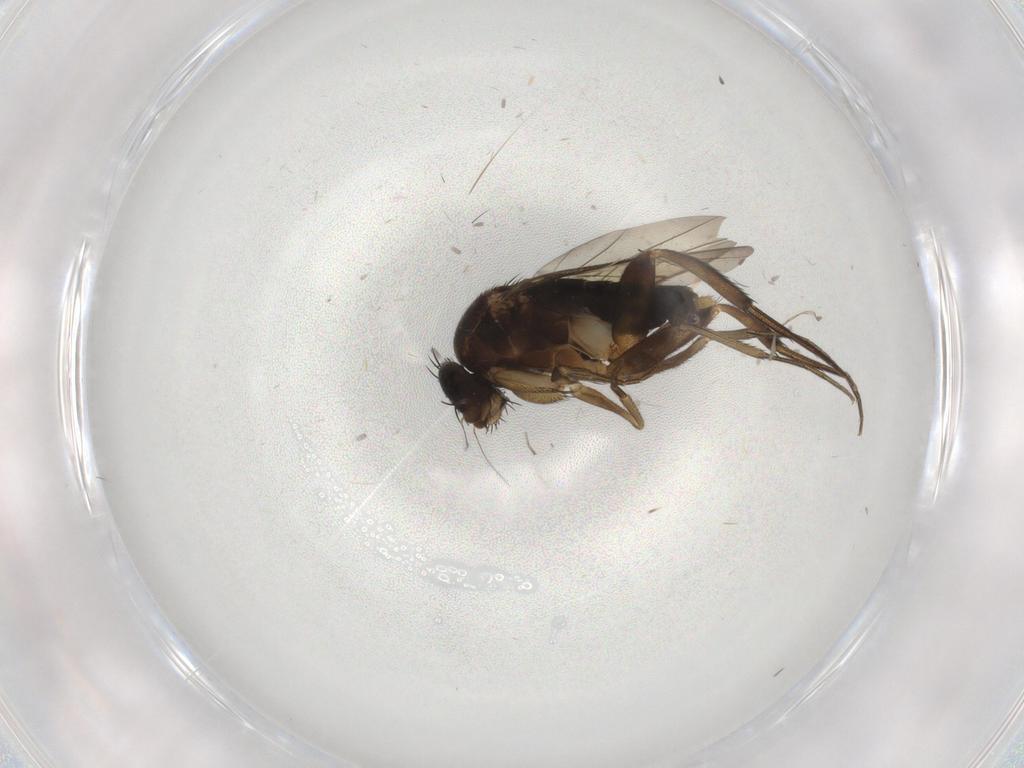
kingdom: Animalia
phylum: Arthropoda
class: Insecta
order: Diptera
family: Phoridae
